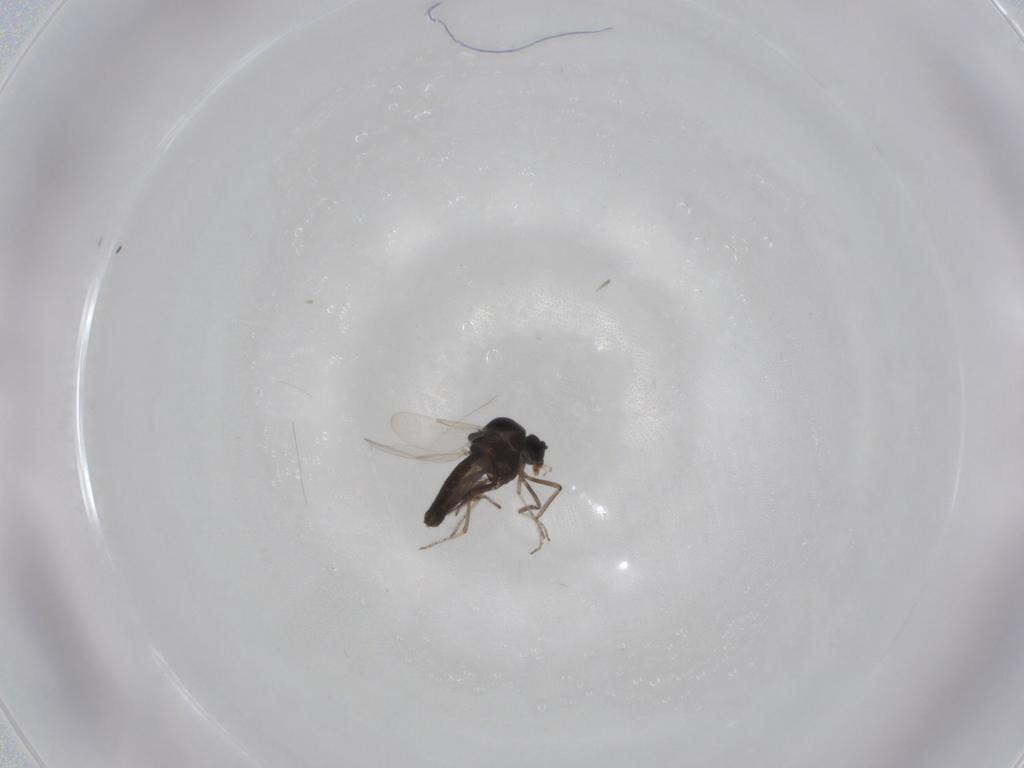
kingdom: Animalia
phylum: Arthropoda
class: Insecta
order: Diptera
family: Ceratopogonidae
